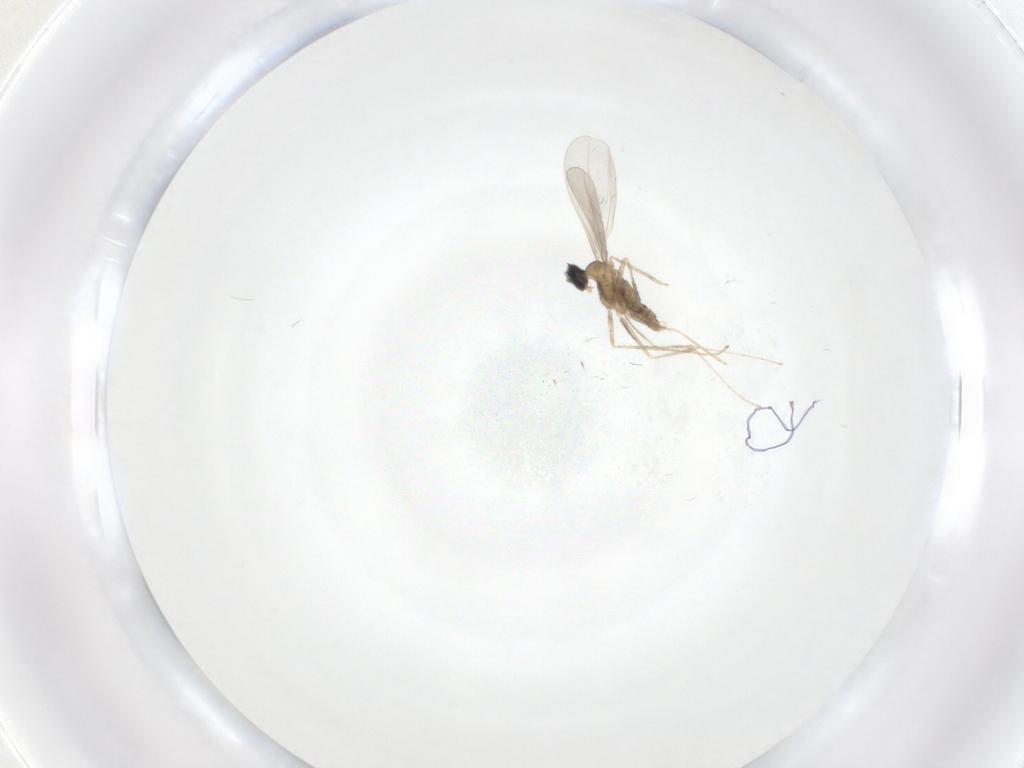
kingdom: Animalia
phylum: Arthropoda
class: Insecta
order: Diptera
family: Cecidomyiidae
